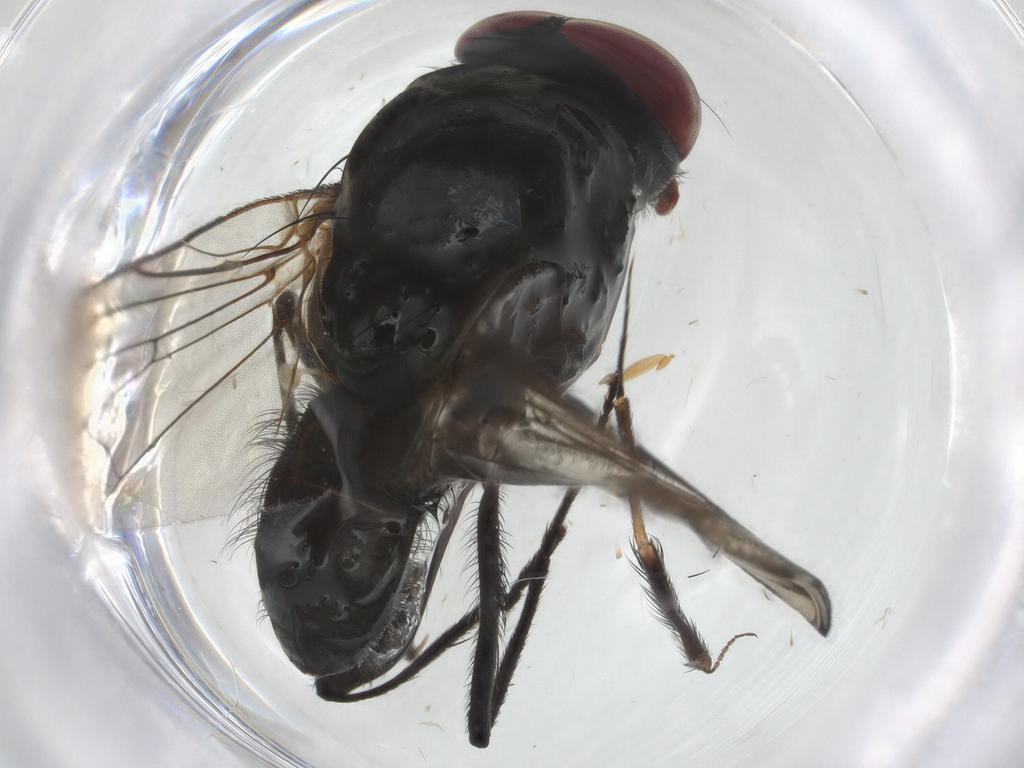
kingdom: Animalia
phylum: Arthropoda
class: Insecta
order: Diptera
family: Anthomyiidae
